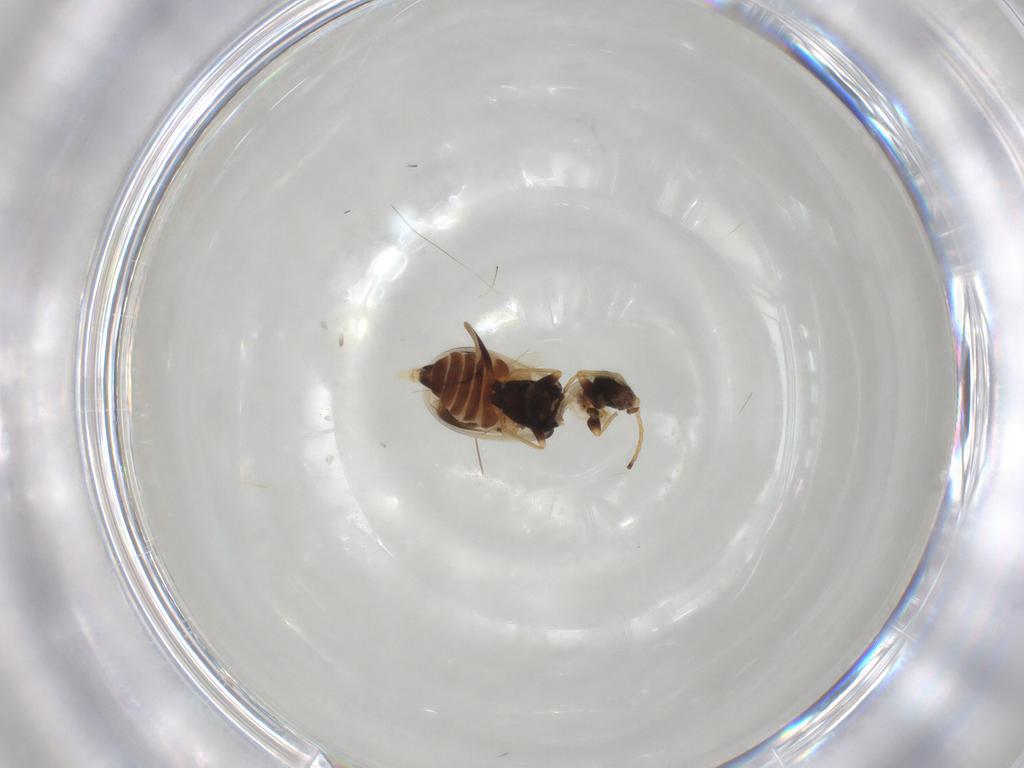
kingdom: Animalia
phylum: Arthropoda
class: Insecta
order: Coleoptera
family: Melyridae
